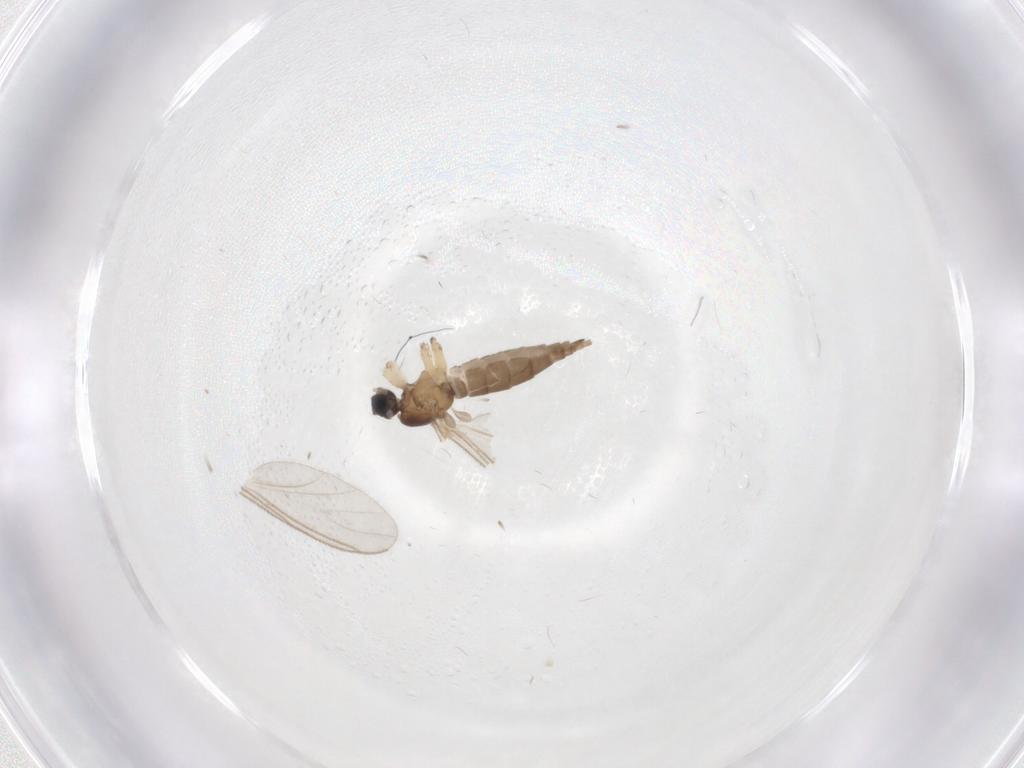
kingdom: Animalia
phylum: Arthropoda
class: Insecta
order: Diptera
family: Sciaridae
